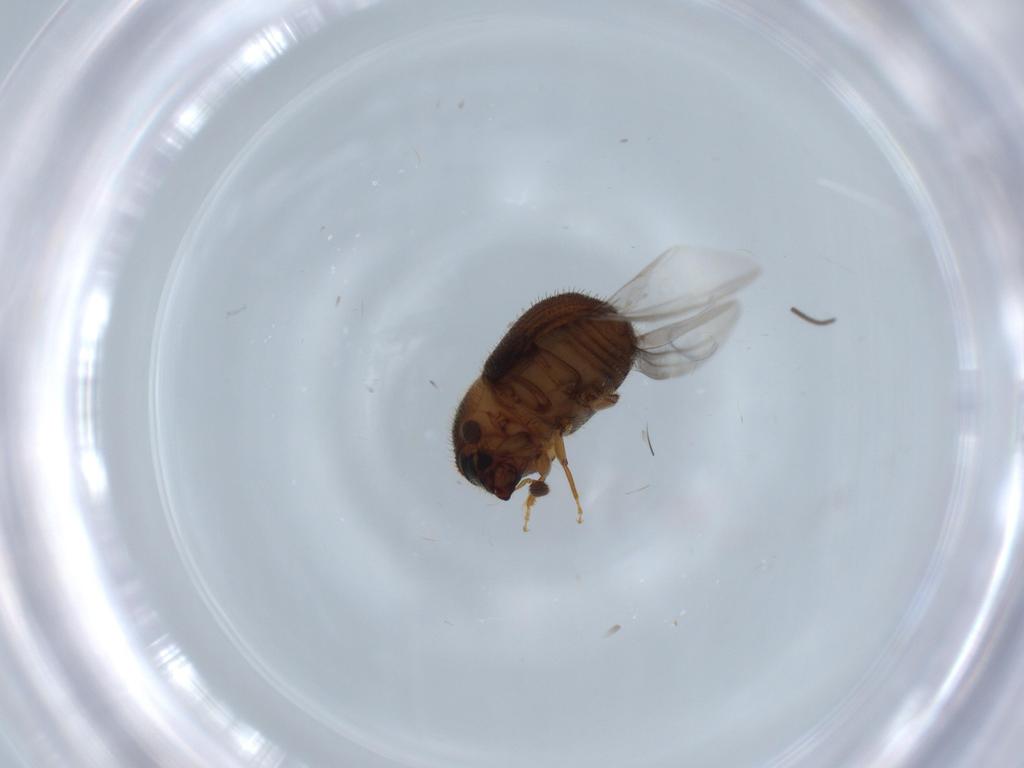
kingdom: Animalia
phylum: Arthropoda
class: Insecta
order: Coleoptera
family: Curculionidae
